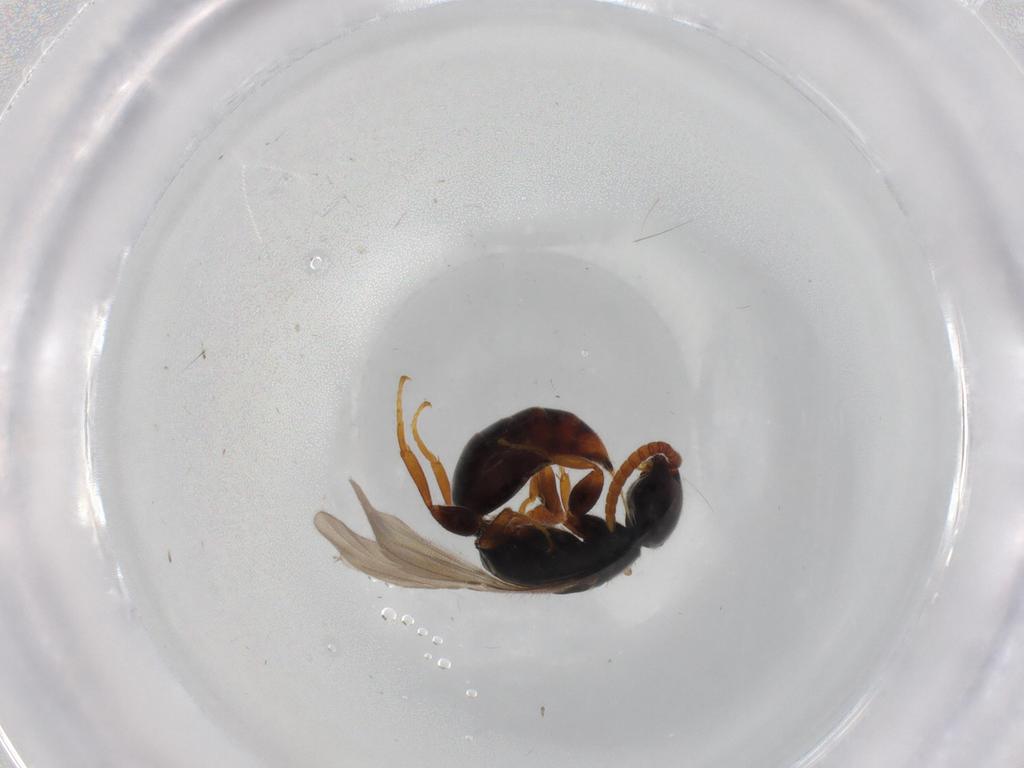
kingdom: Animalia
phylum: Arthropoda
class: Insecta
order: Hymenoptera
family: Bethylidae
